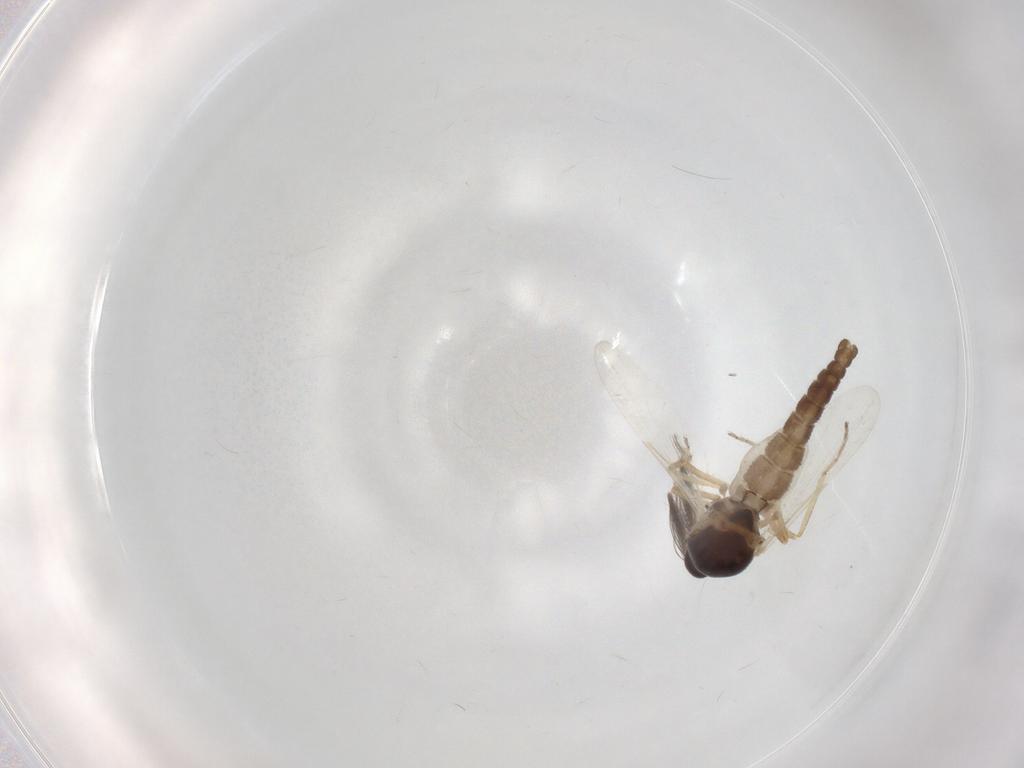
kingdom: Animalia
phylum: Arthropoda
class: Insecta
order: Diptera
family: Ceratopogonidae
